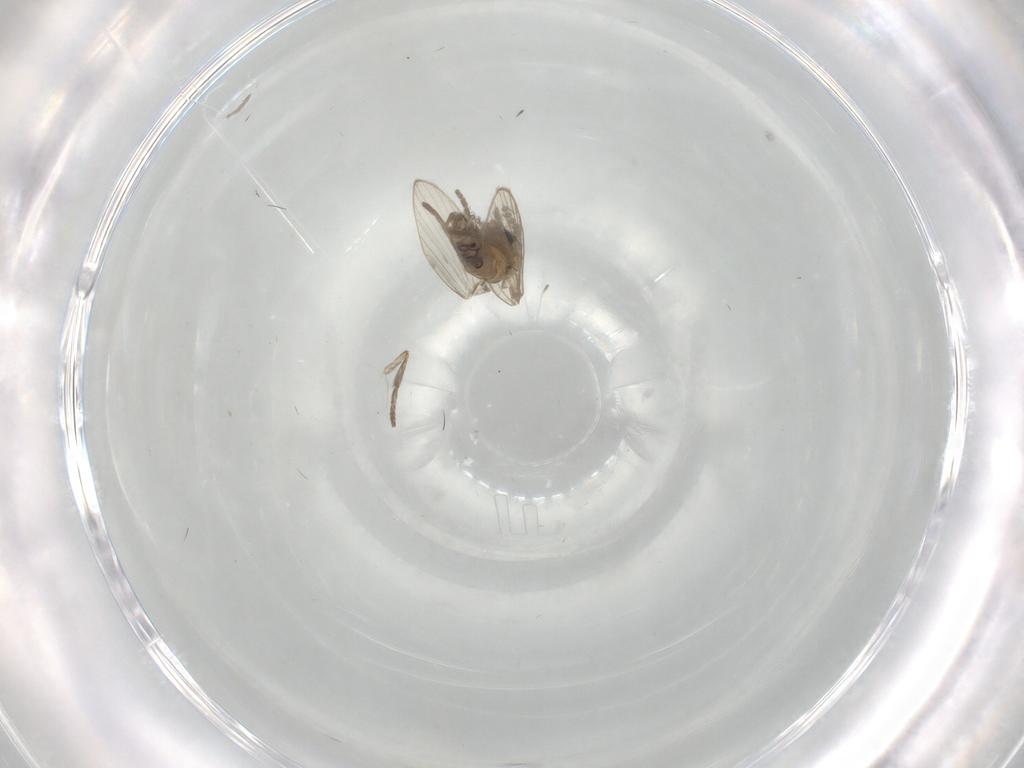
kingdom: Animalia
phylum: Arthropoda
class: Insecta
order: Diptera
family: Psychodidae
